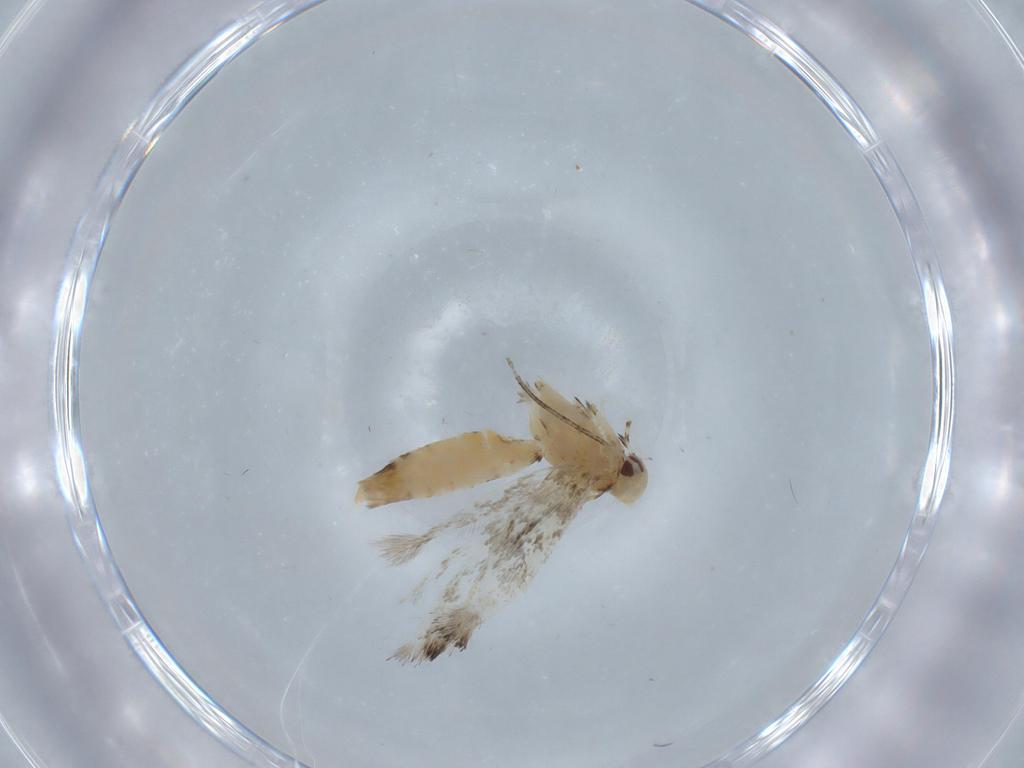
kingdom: Animalia
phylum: Arthropoda
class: Insecta
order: Lepidoptera
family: Gracillariidae
